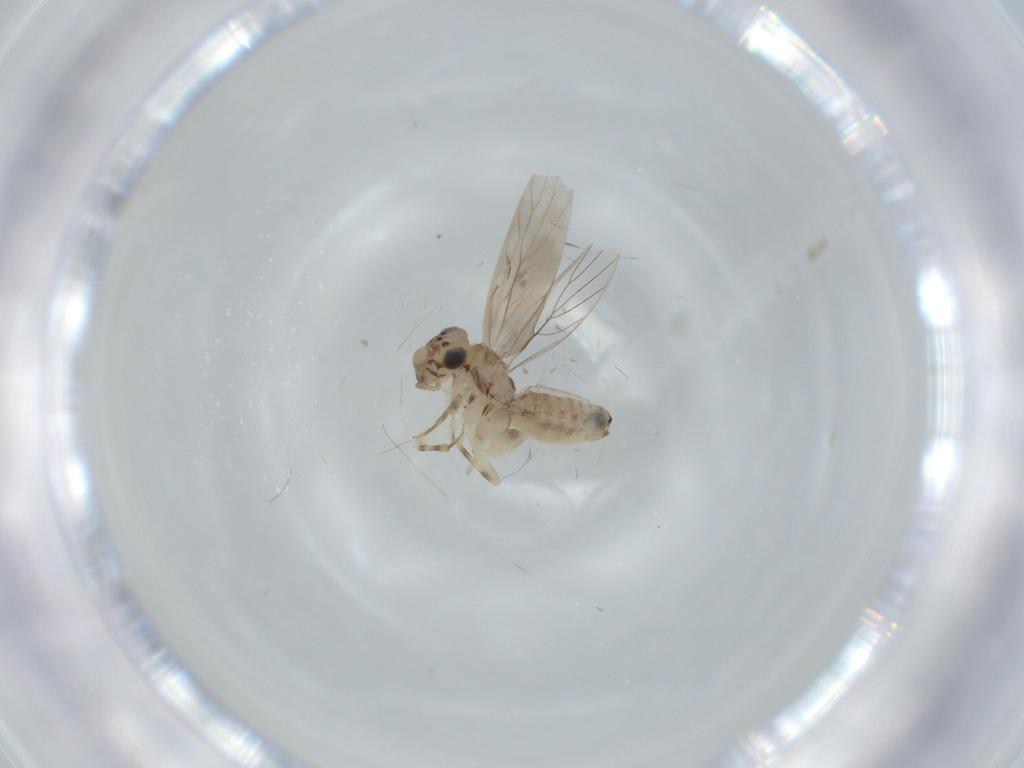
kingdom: Animalia
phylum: Arthropoda
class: Insecta
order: Psocodea
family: Lepidopsocidae
